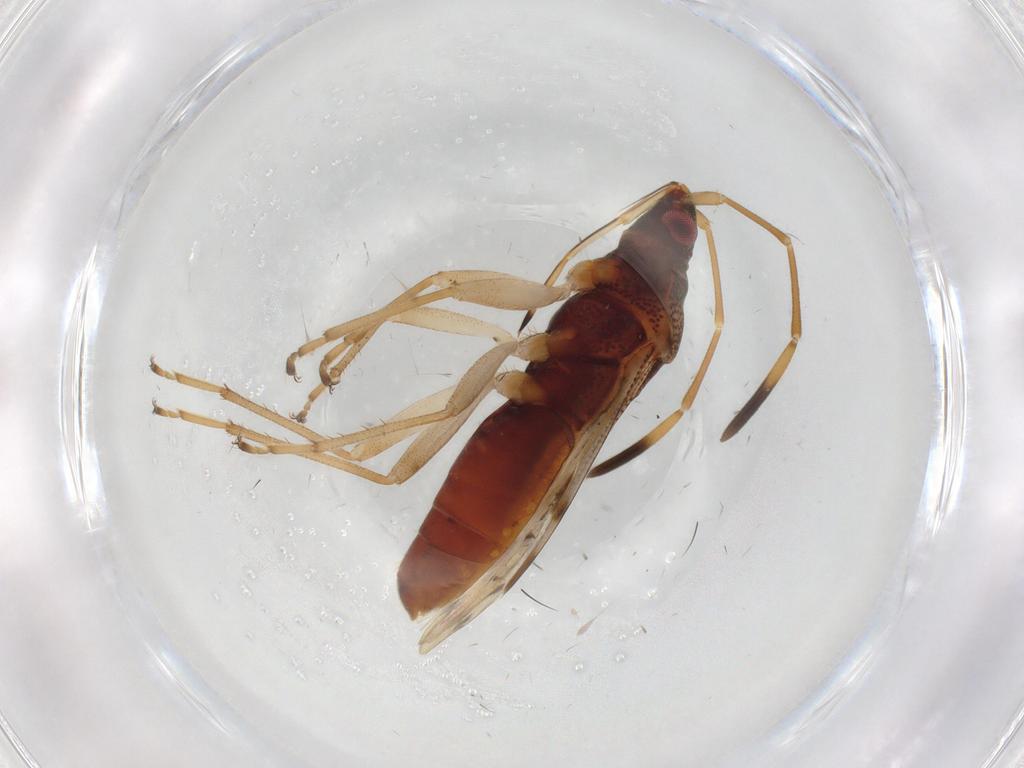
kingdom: Animalia
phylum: Arthropoda
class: Insecta
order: Hemiptera
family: Rhyparochromidae
